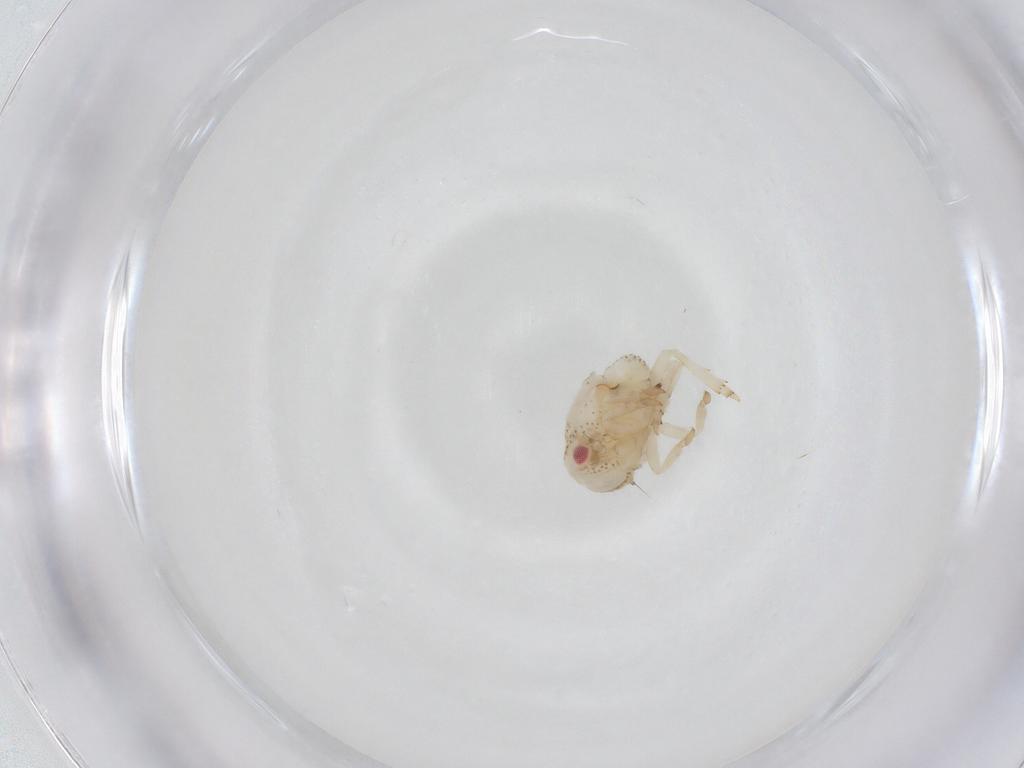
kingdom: Animalia
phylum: Arthropoda
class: Insecta
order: Hemiptera
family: Acanaloniidae
